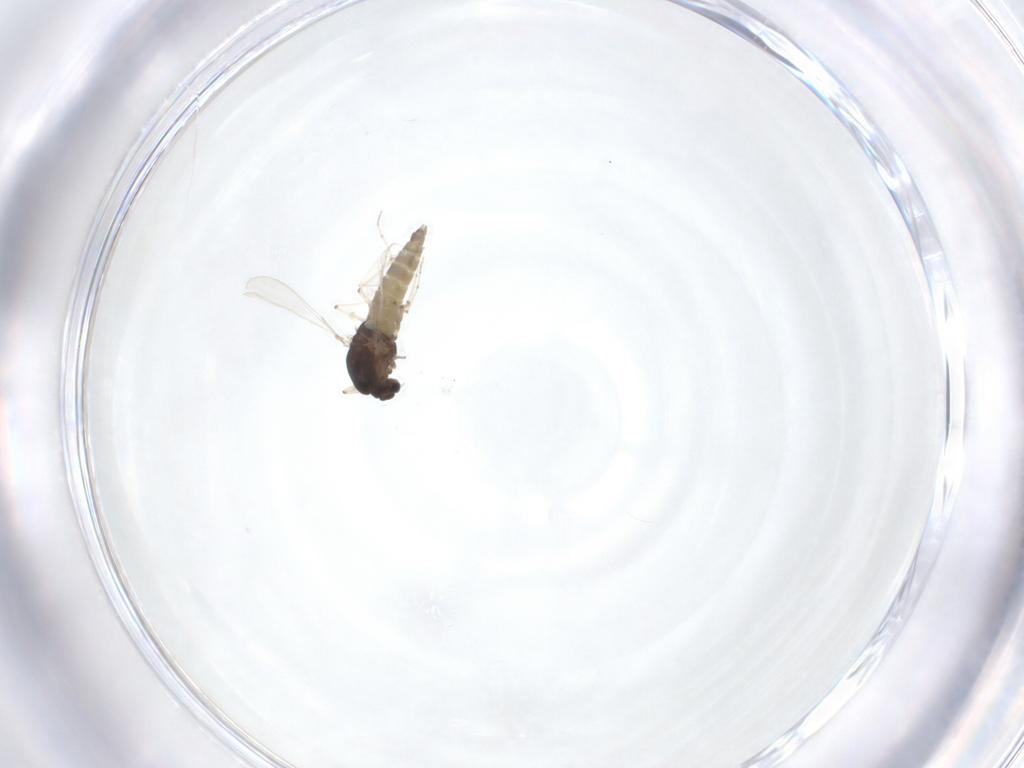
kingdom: Animalia
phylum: Arthropoda
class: Insecta
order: Diptera
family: Chironomidae
